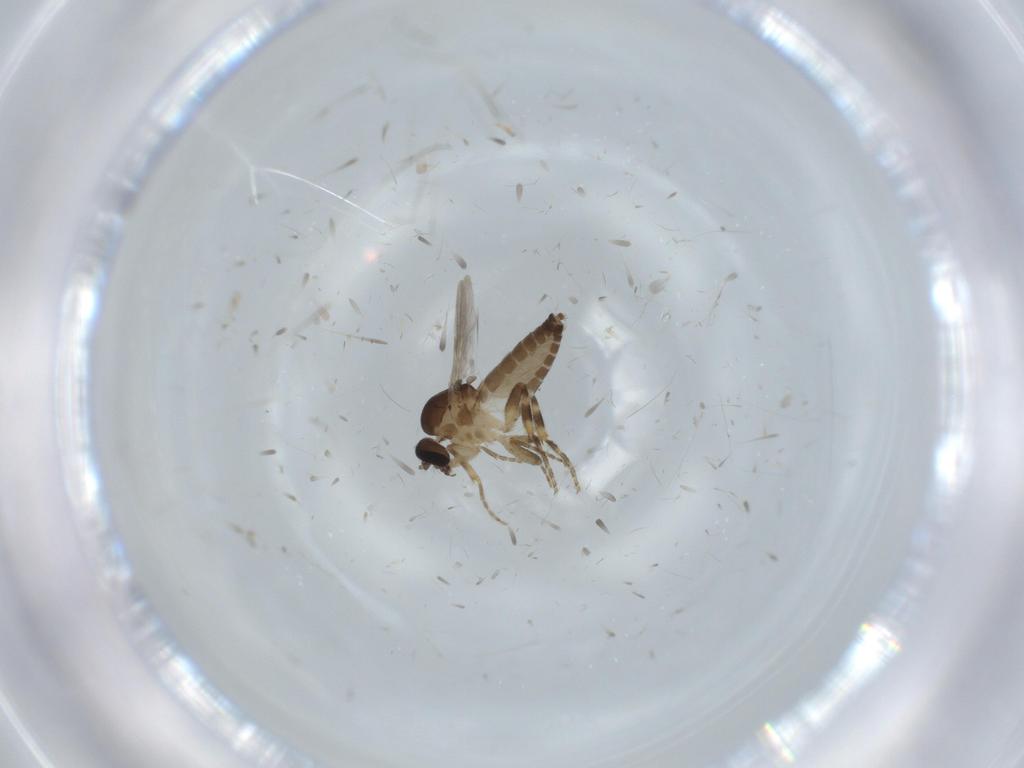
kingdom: Animalia
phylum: Arthropoda
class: Insecta
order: Diptera
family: Ceratopogonidae
